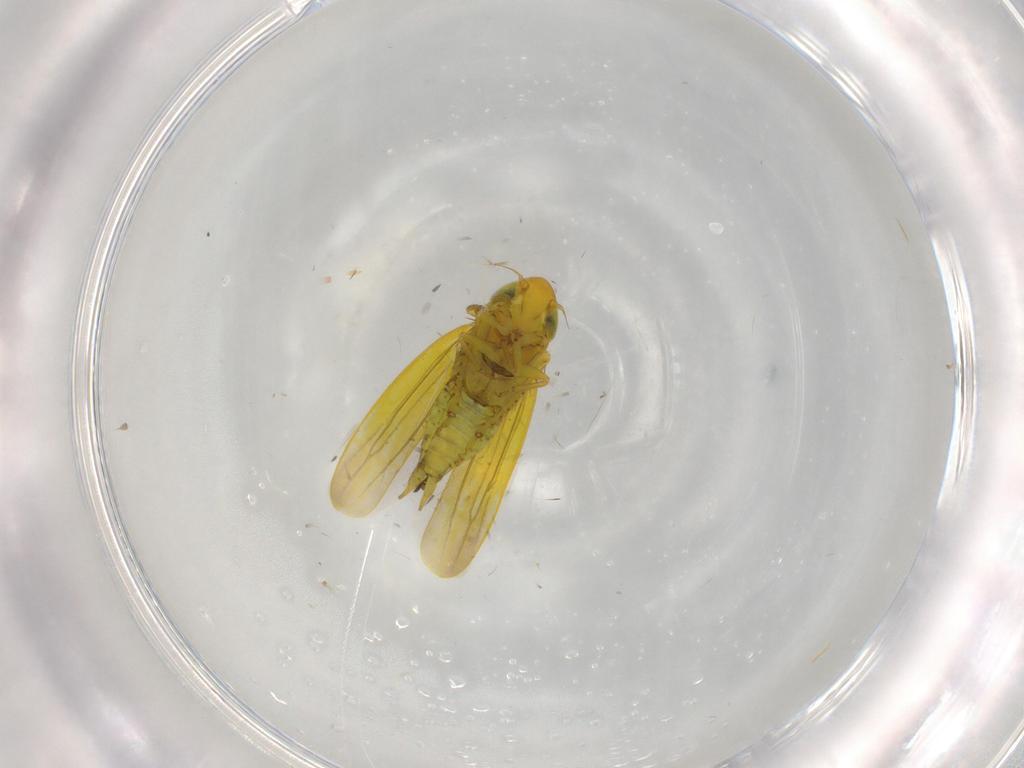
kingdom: Animalia
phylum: Arthropoda
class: Insecta
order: Hemiptera
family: Cicadellidae
